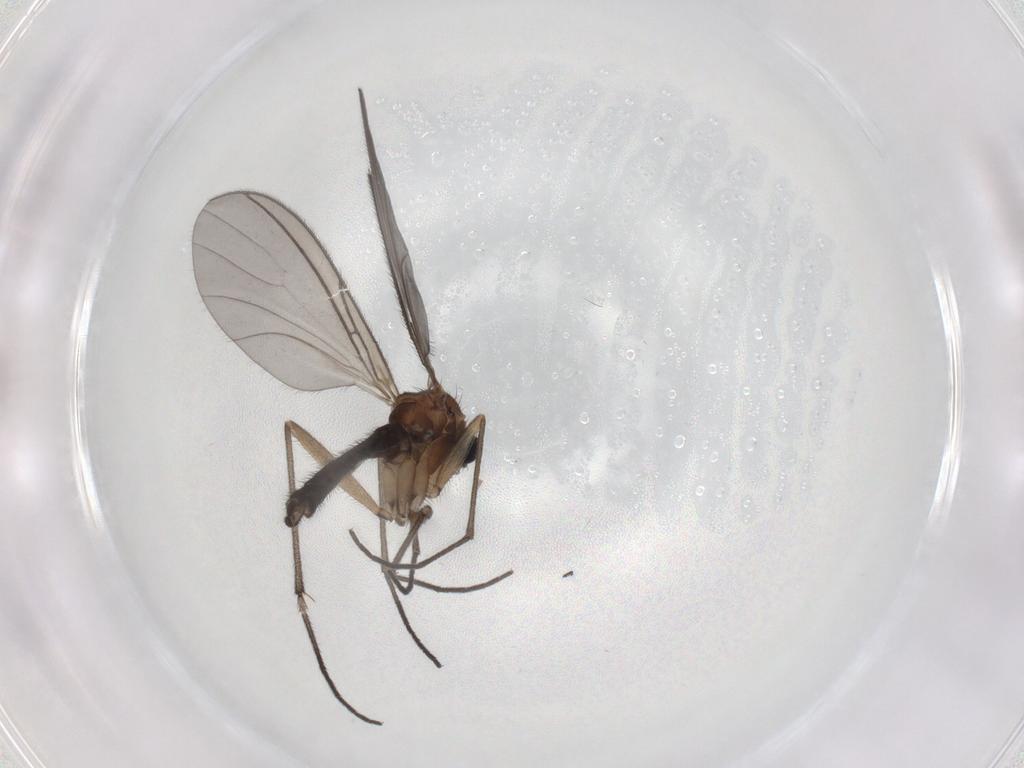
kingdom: Animalia
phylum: Arthropoda
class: Insecta
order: Diptera
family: Sciaridae
